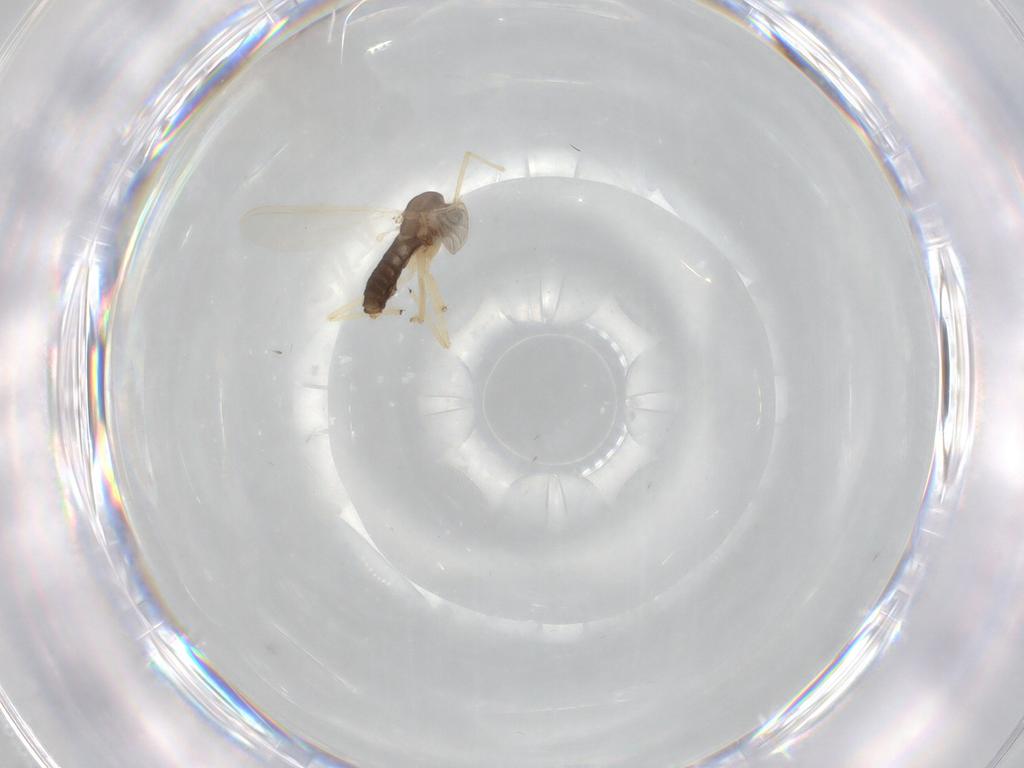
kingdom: Animalia
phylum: Arthropoda
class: Insecta
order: Diptera
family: Chironomidae
